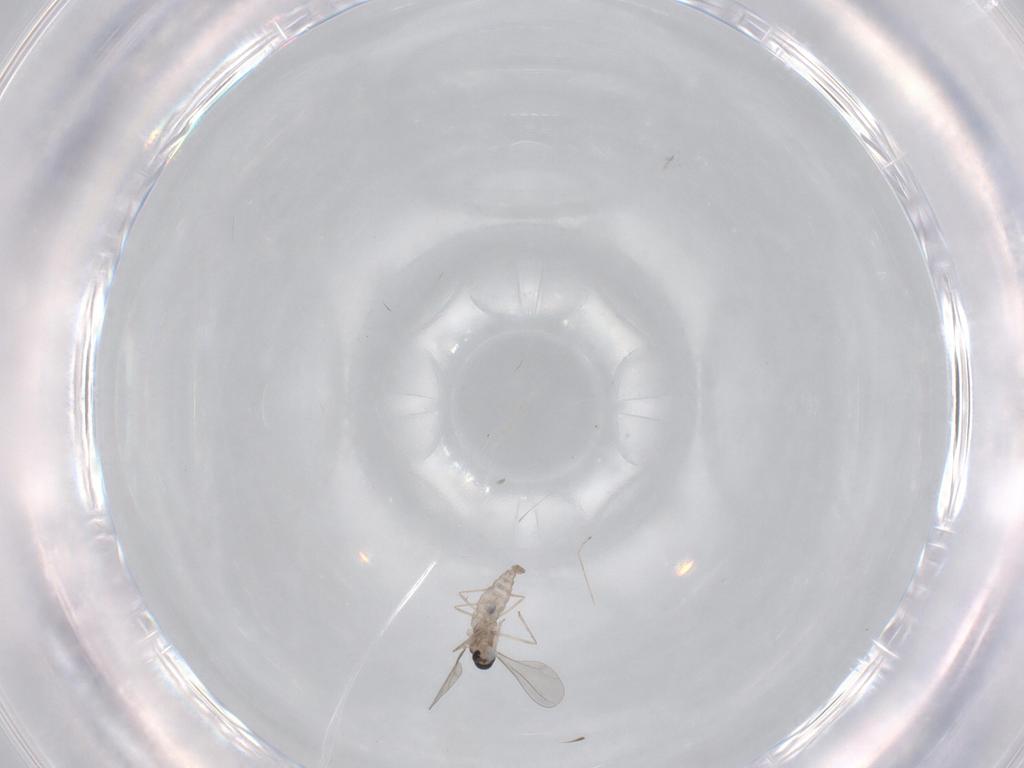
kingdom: Animalia
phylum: Arthropoda
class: Insecta
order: Diptera
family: Cecidomyiidae
